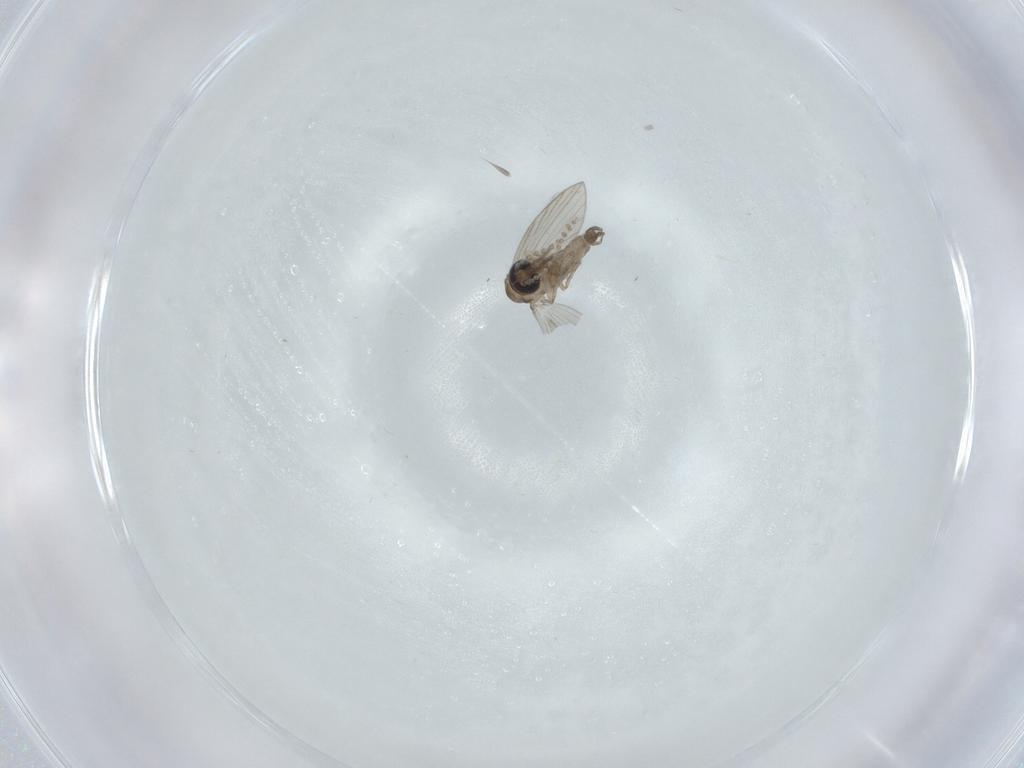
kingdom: Animalia
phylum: Arthropoda
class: Insecta
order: Diptera
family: Psychodidae
